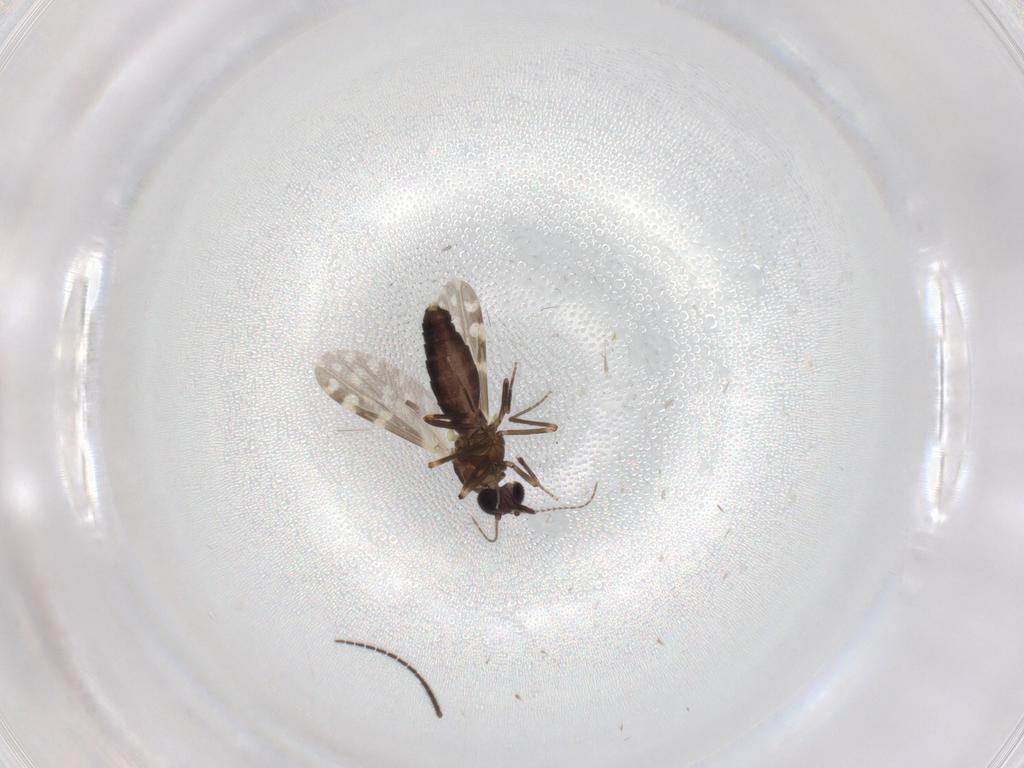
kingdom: Animalia
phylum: Arthropoda
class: Insecta
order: Diptera
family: Ceratopogonidae
